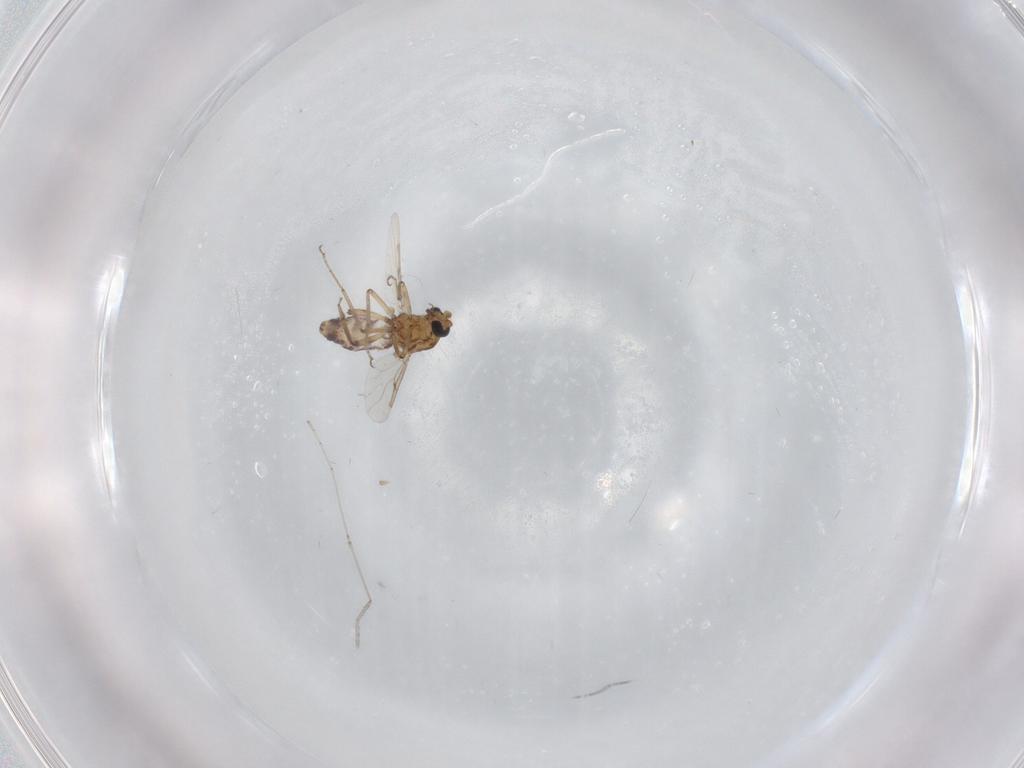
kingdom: Animalia
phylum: Arthropoda
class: Insecta
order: Diptera
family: Ceratopogonidae
